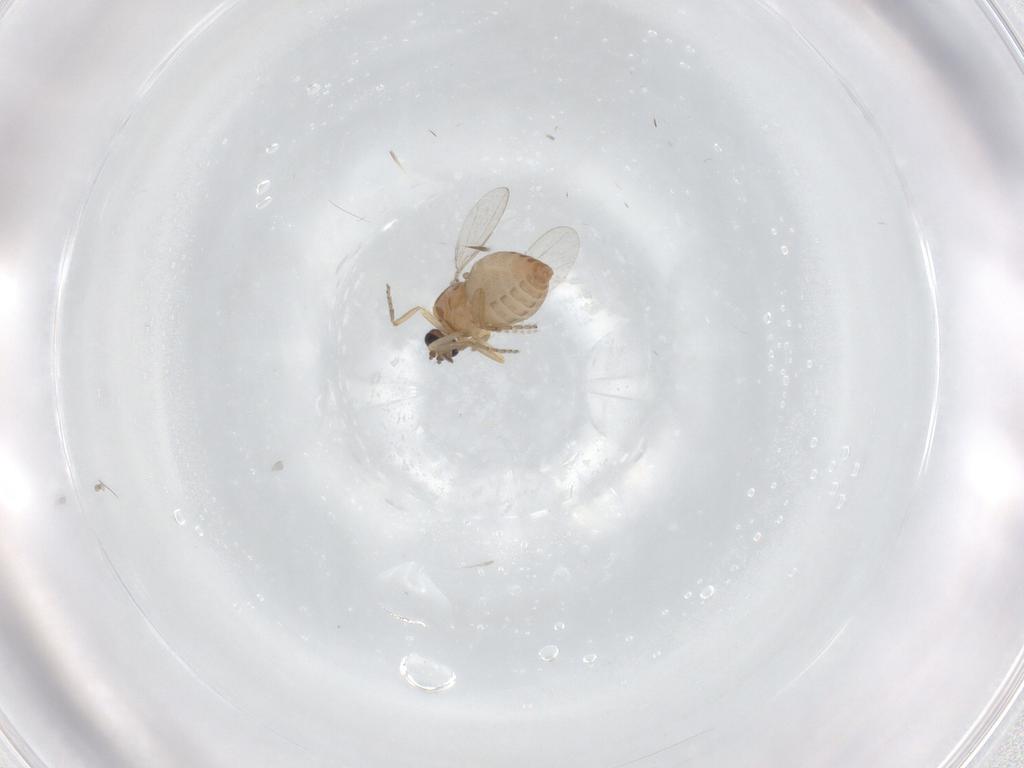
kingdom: Animalia
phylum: Arthropoda
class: Insecta
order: Diptera
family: Ceratopogonidae
